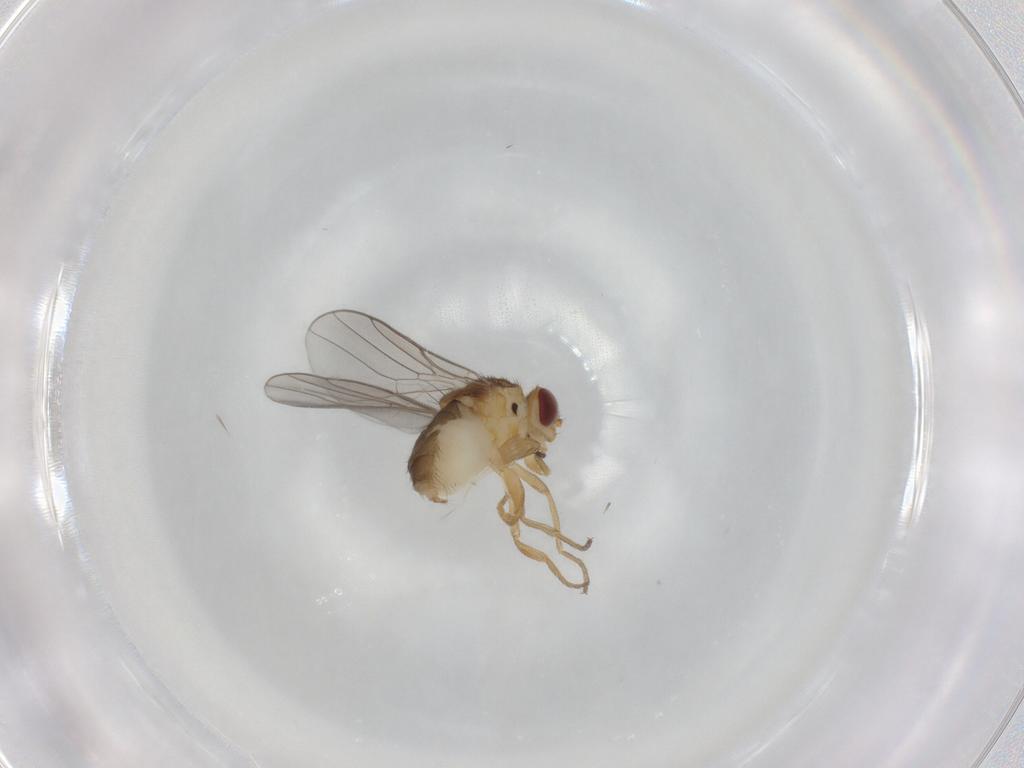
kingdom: Animalia
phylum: Arthropoda
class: Insecta
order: Diptera
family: Chloropidae
